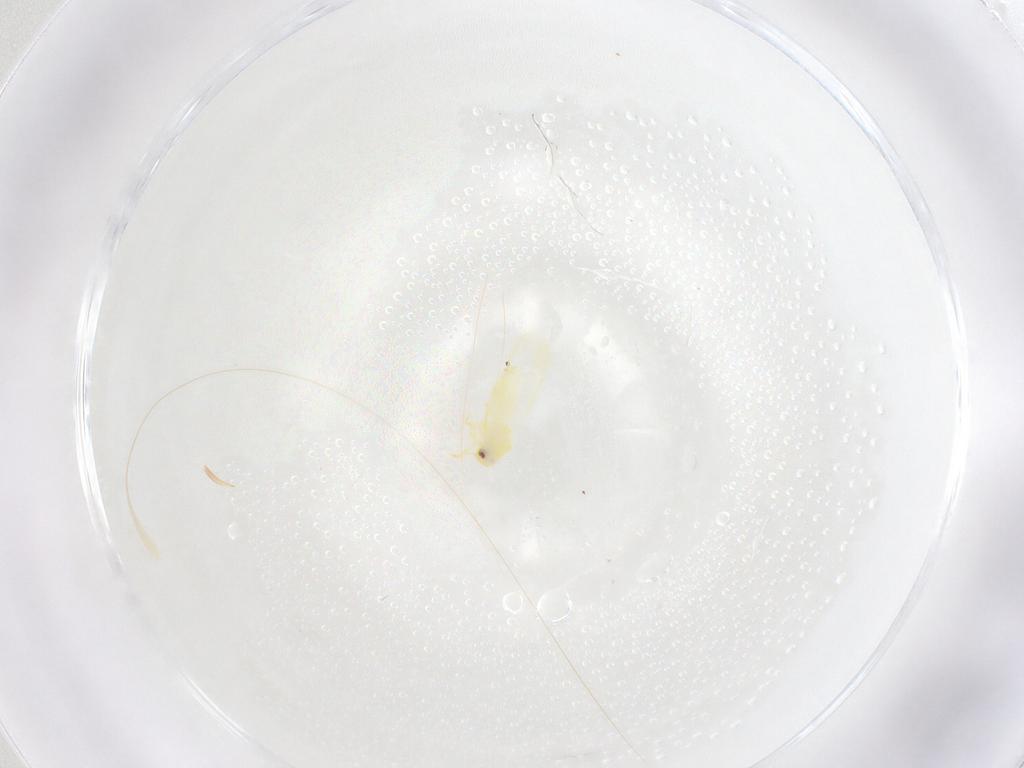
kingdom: Animalia
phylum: Arthropoda
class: Insecta
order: Hemiptera
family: Aleyrodidae
